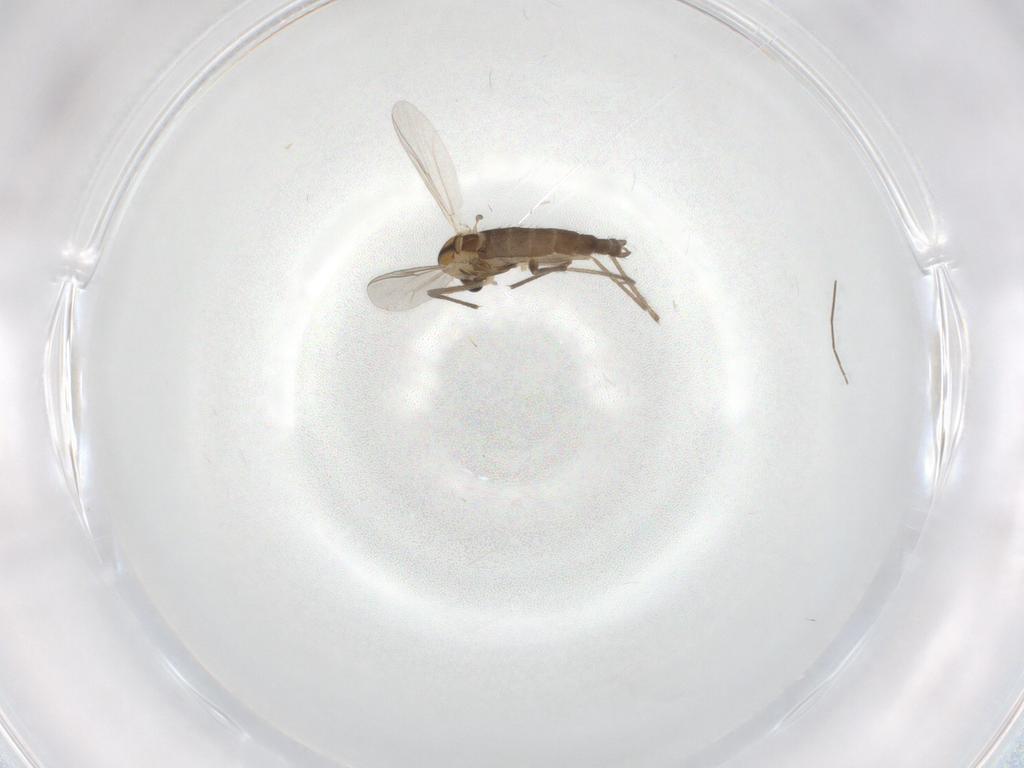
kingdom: Animalia
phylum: Arthropoda
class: Insecta
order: Diptera
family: Chironomidae
